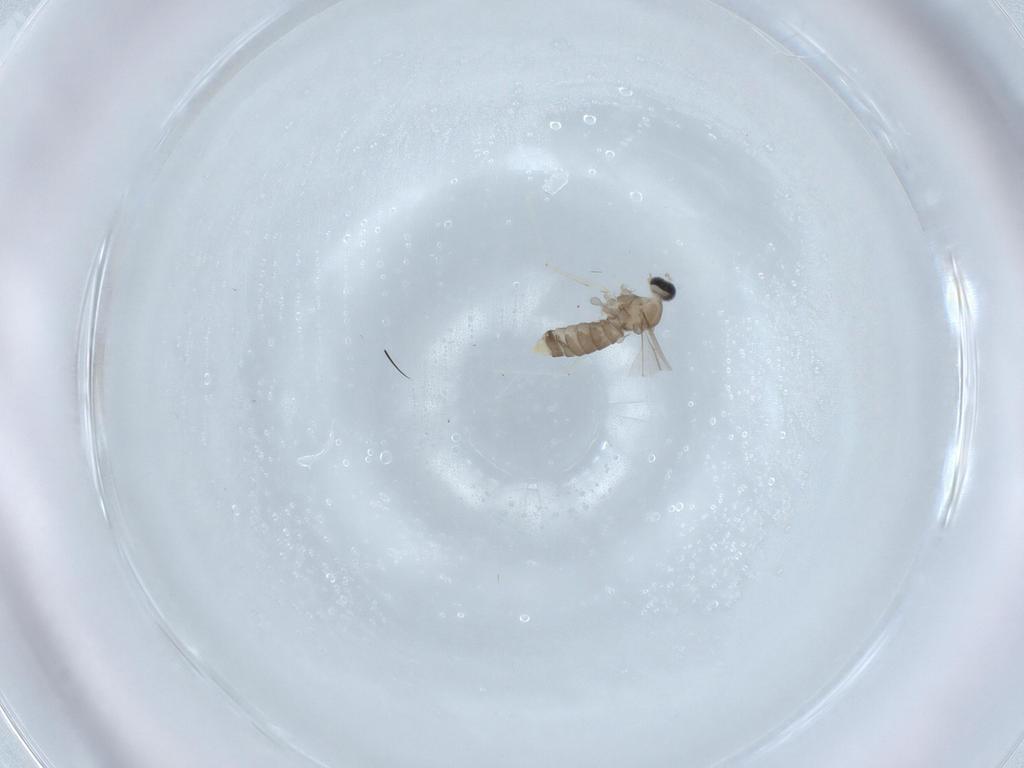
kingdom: Animalia
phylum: Arthropoda
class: Insecta
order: Diptera
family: Cecidomyiidae
